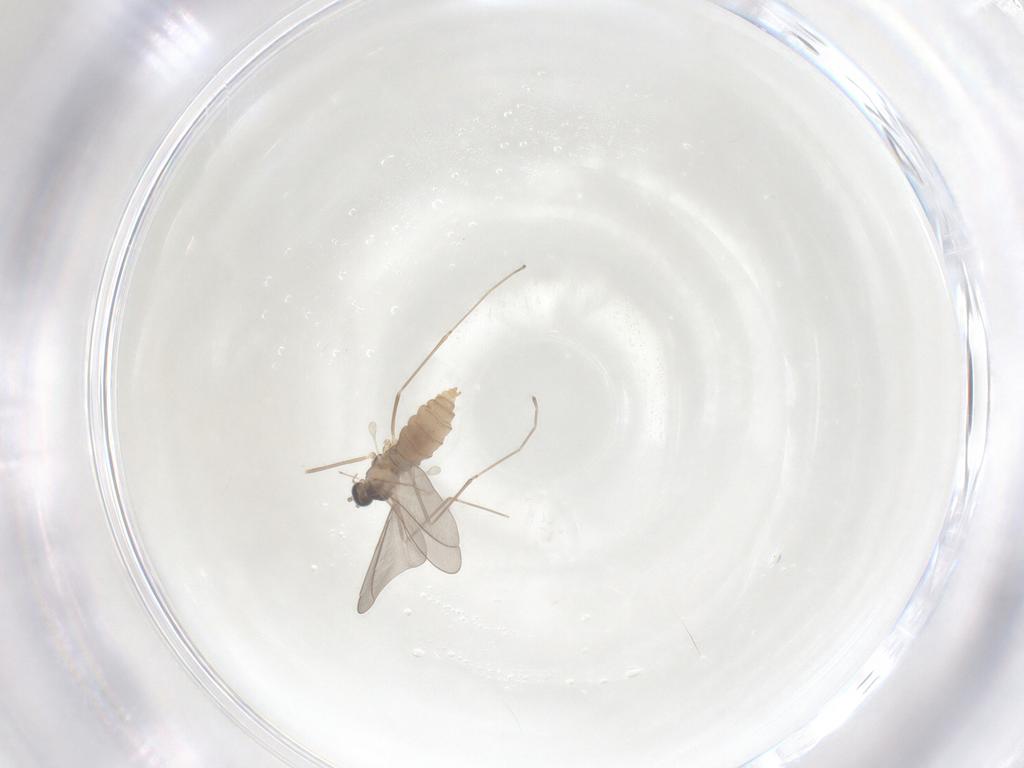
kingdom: Animalia
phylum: Arthropoda
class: Insecta
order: Diptera
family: Cecidomyiidae
